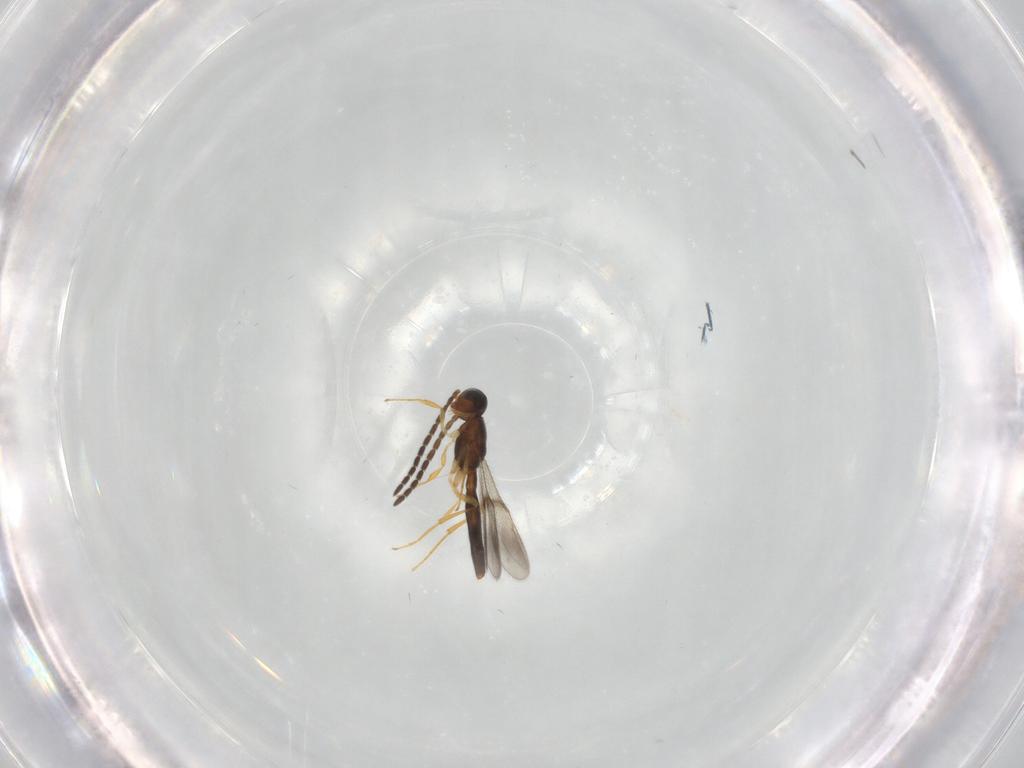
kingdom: Animalia
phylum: Arthropoda
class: Insecta
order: Hymenoptera
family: Scelionidae
